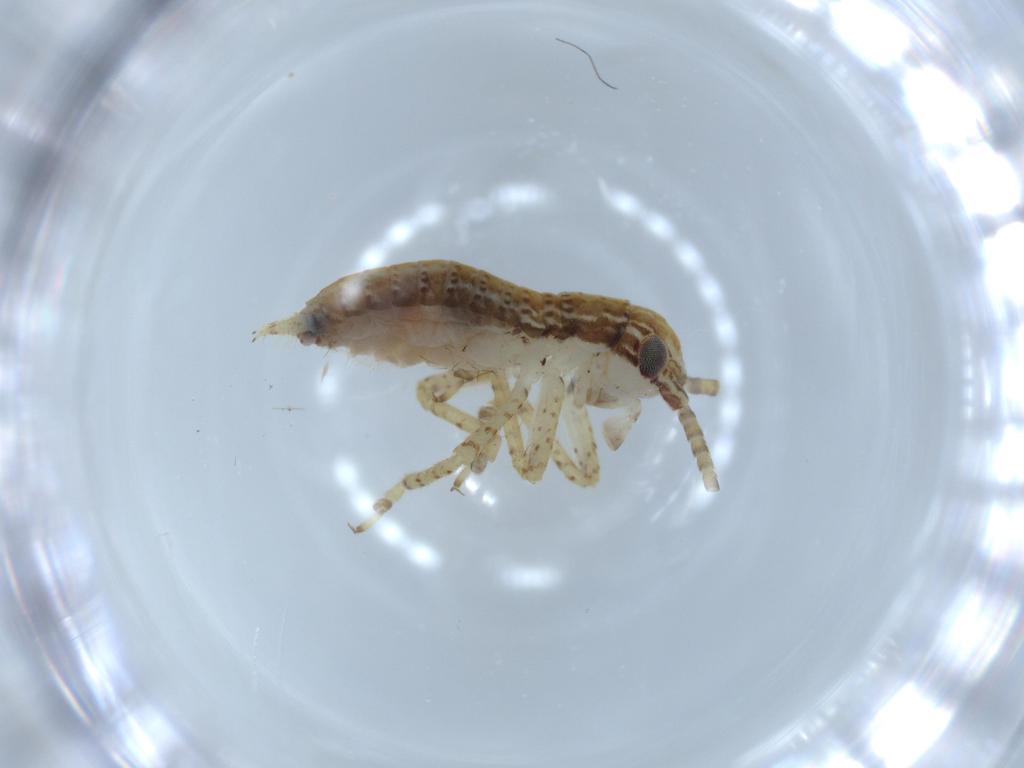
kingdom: Animalia
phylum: Arthropoda
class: Insecta
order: Orthoptera
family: Gryllidae
